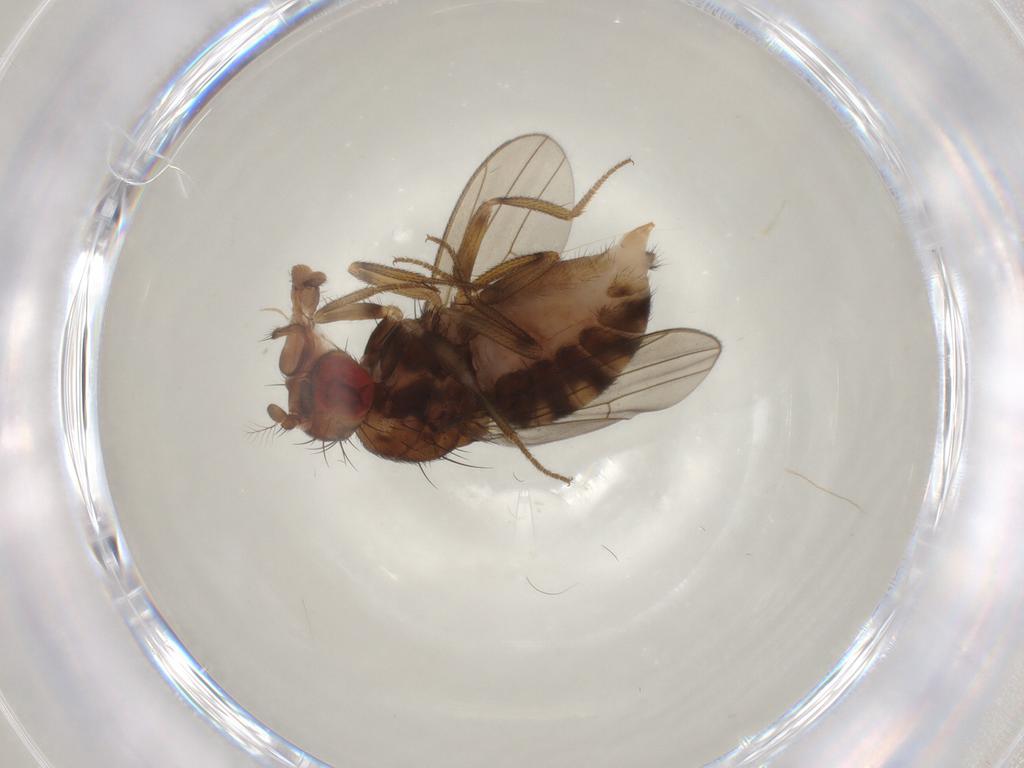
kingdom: Animalia
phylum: Arthropoda
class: Insecta
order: Diptera
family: Drosophilidae
